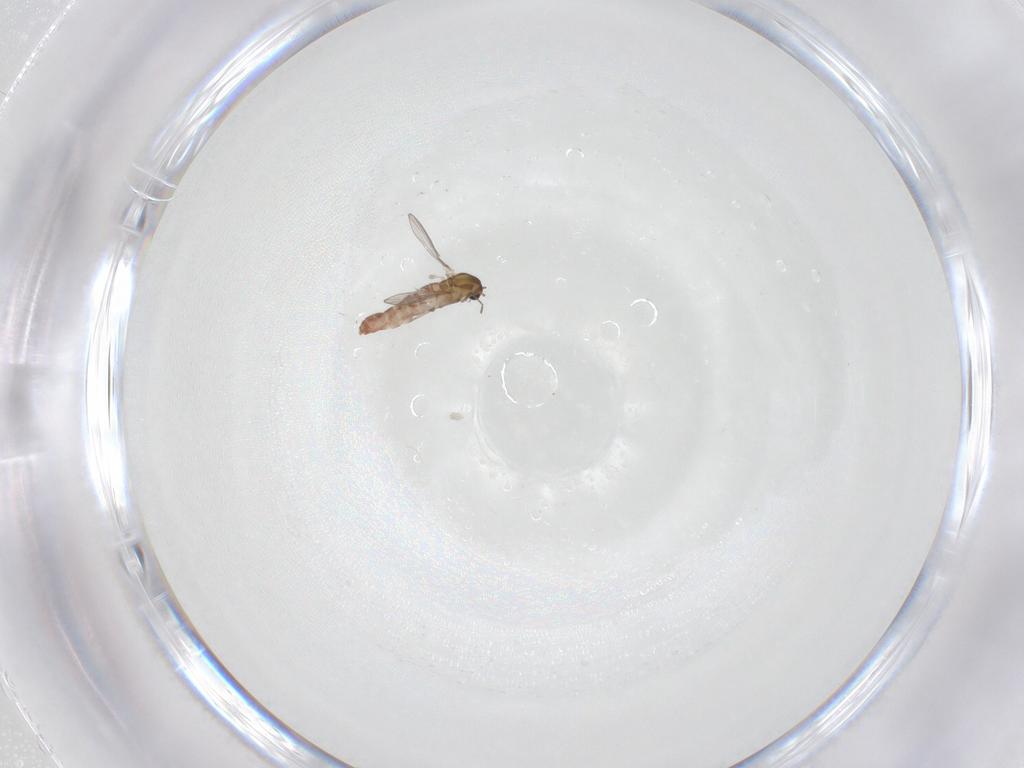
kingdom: Animalia
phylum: Arthropoda
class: Insecta
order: Diptera
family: Chironomidae
